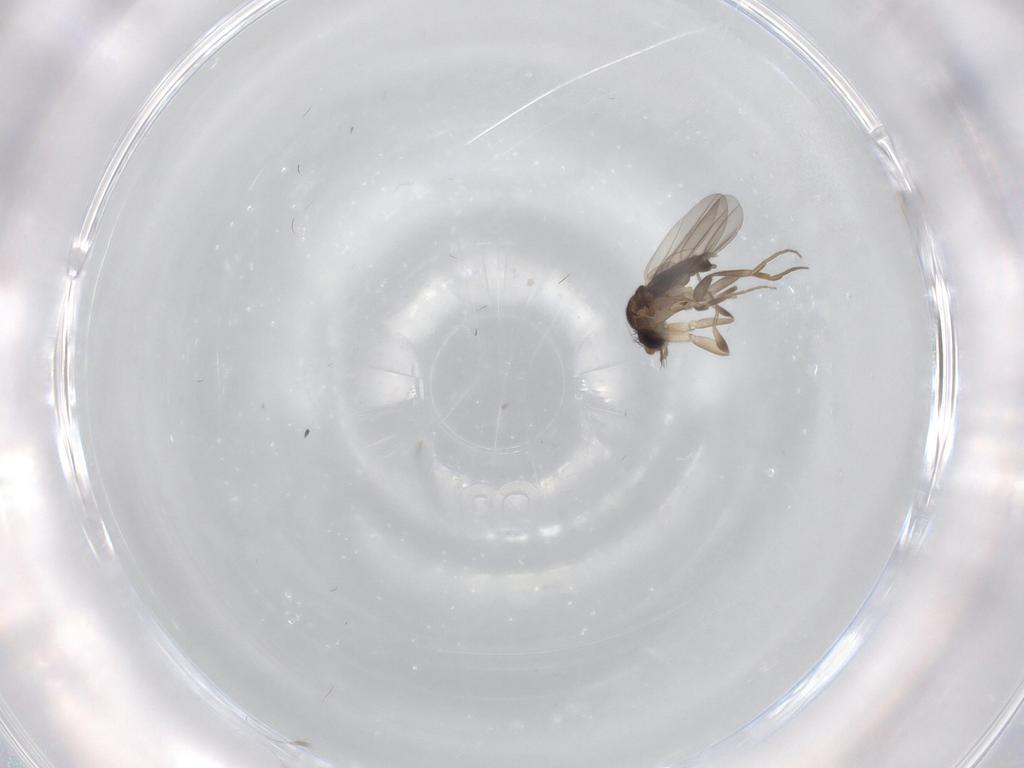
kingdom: Animalia
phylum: Arthropoda
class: Insecta
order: Diptera
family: Phoridae
